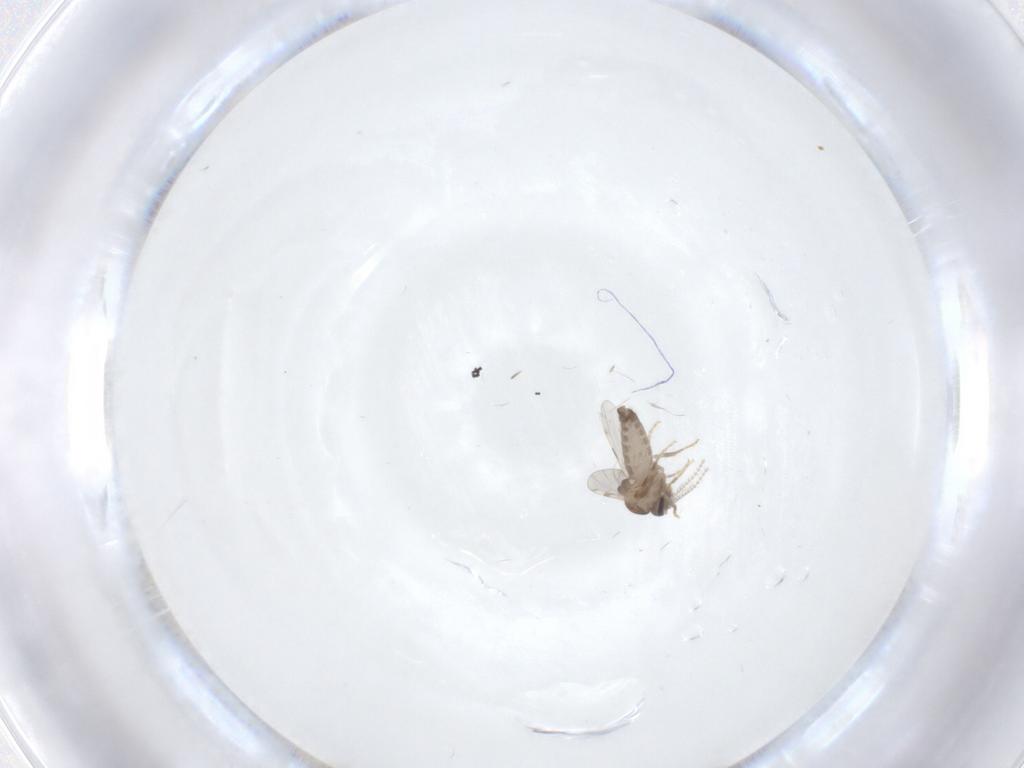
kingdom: Animalia
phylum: Arthropoda
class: Insecta
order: Diptera
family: Ceratopogonidae
